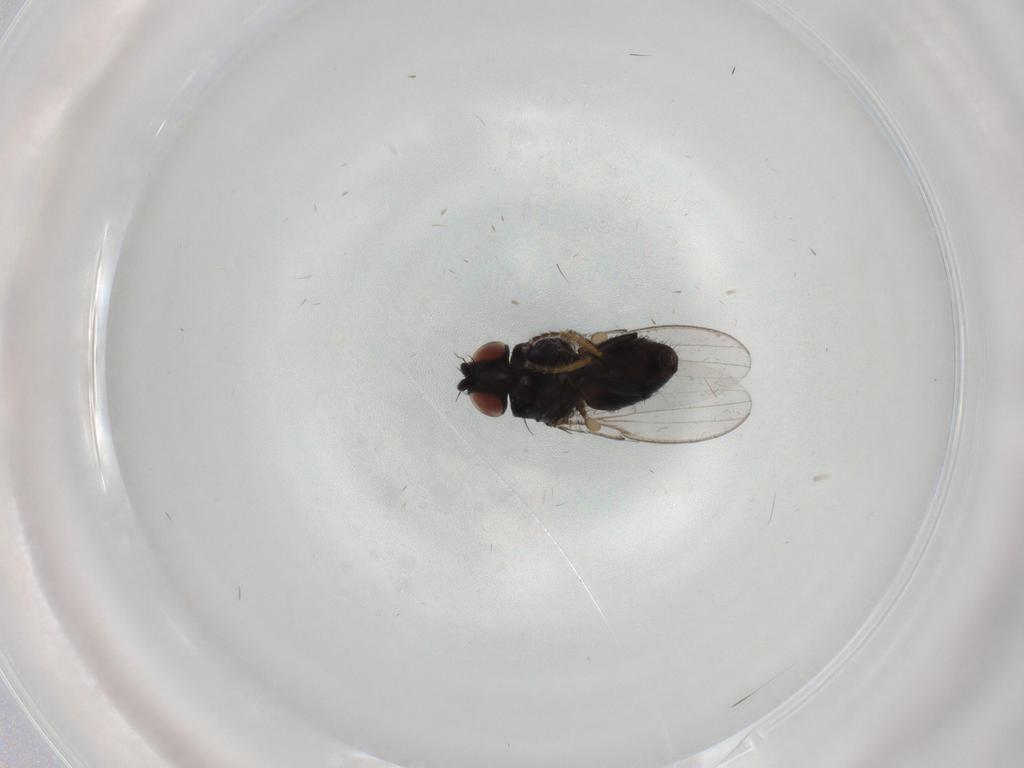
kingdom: Animalia
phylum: Arthropoda
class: Insecta
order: Diptera
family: Milichiidae
